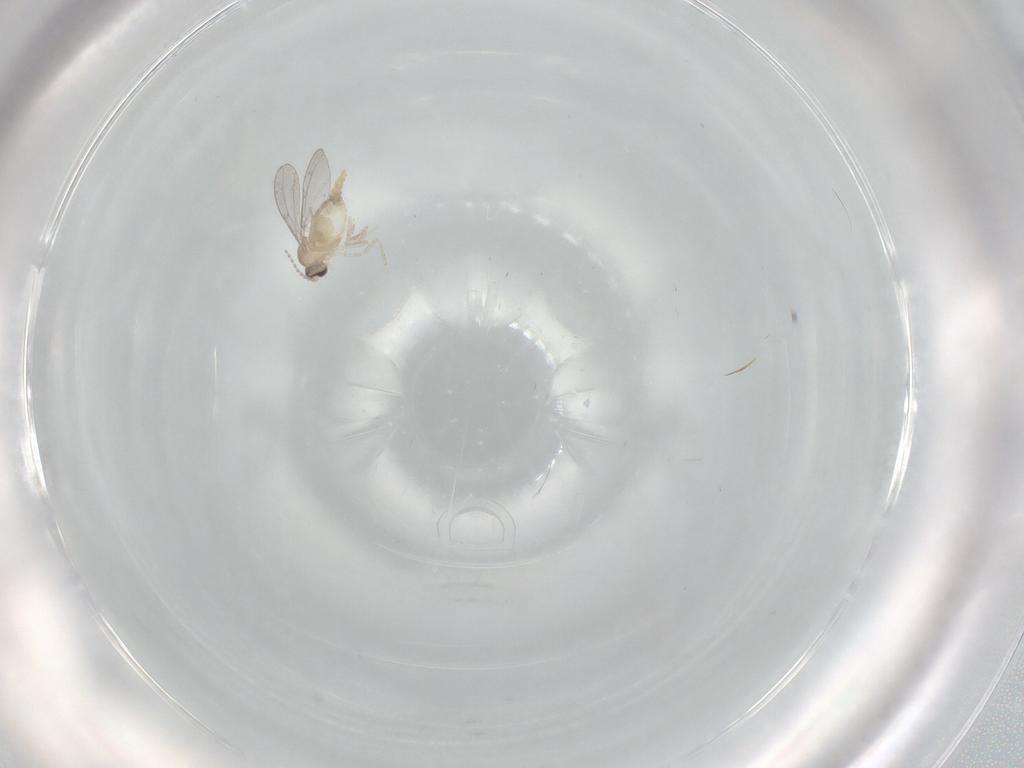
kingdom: Animalia
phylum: Arthropoda
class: Insecta
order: Diptera
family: Cecidomyiidae
